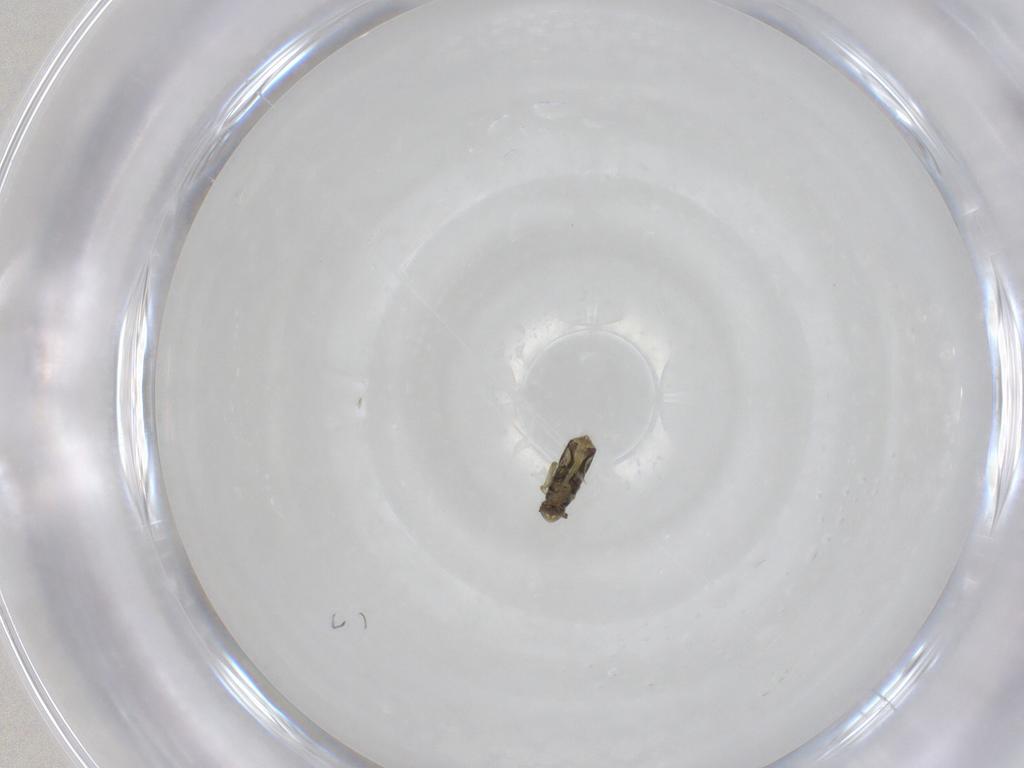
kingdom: Animalia
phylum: Arthropoda
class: Collembola
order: Entomobryomorpha
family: Entomobryidae
